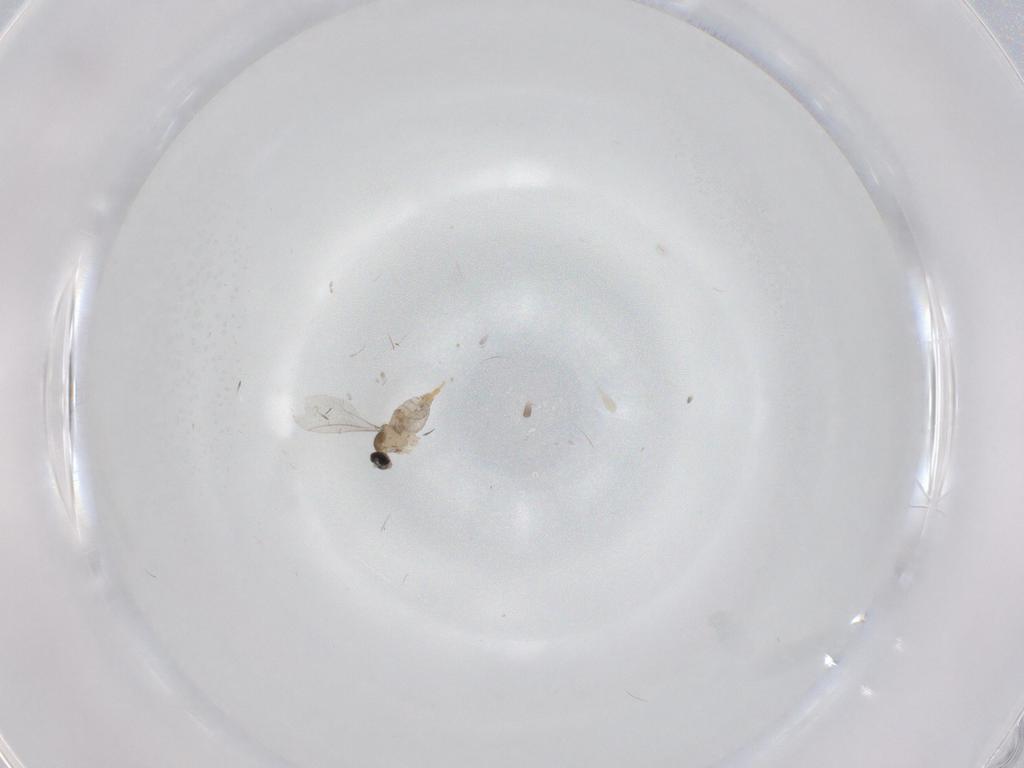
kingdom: Animalia
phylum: Arthropoda
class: Insecta
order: Diptera
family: Cecidomyiidae
